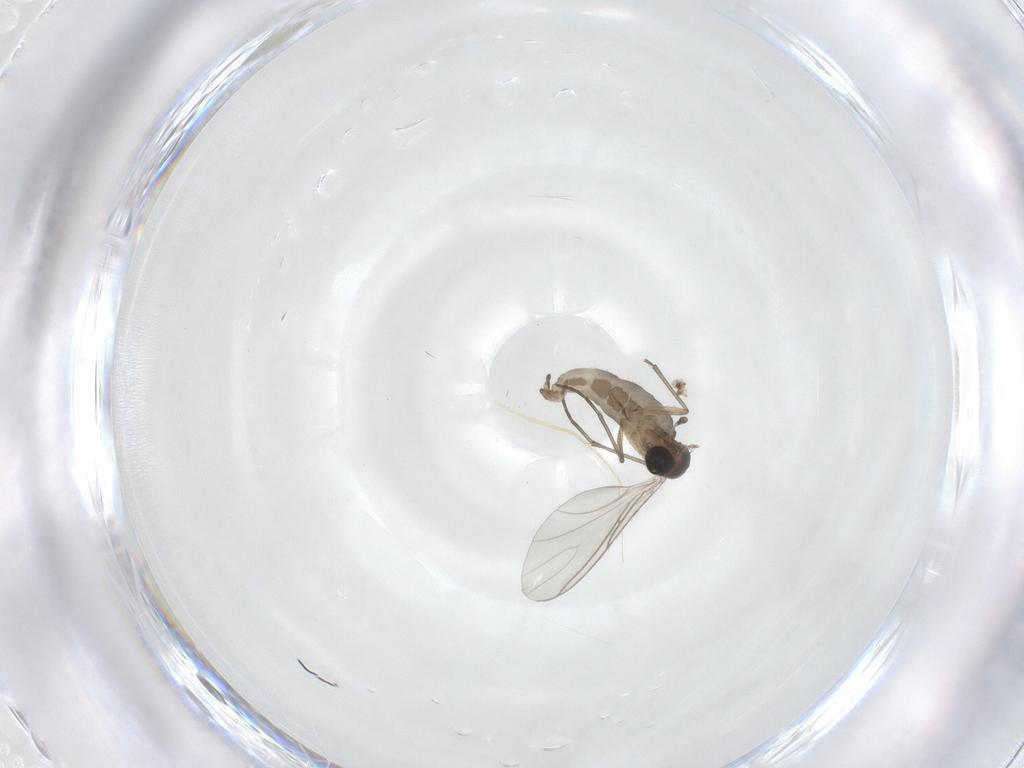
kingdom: Animalia
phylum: Arthropoda
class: Insecta
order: Diptera
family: Sciaridae
